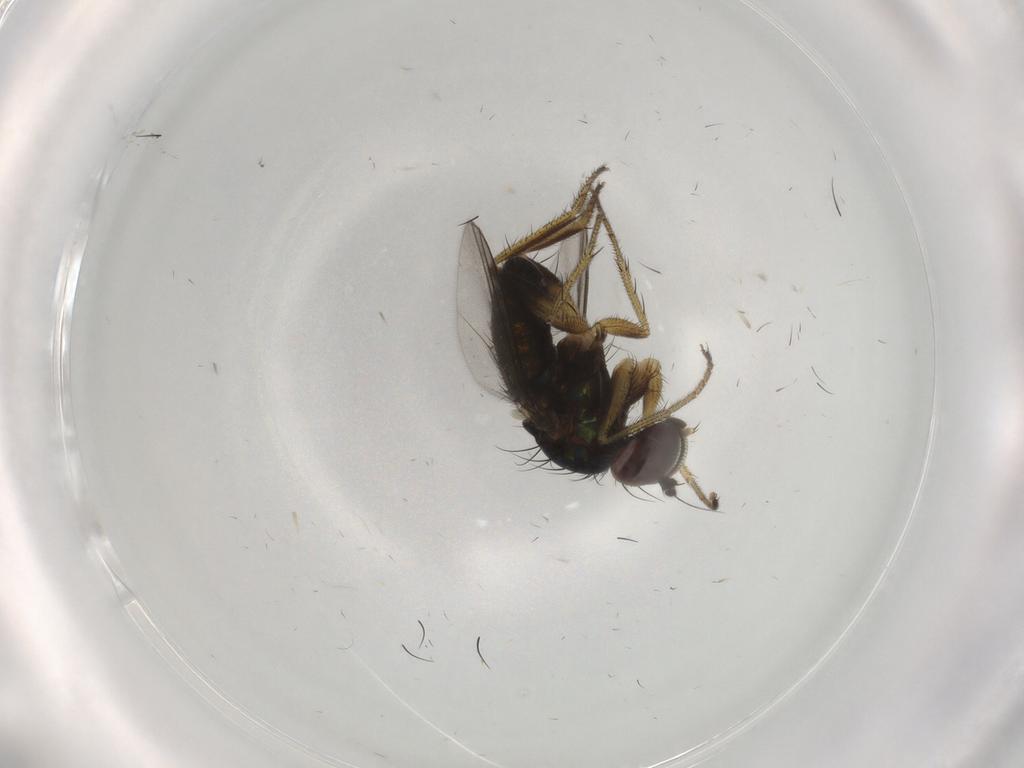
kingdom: Animalia
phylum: Arthropoda
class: Insecta
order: Diptera
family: Dolichopodidae
